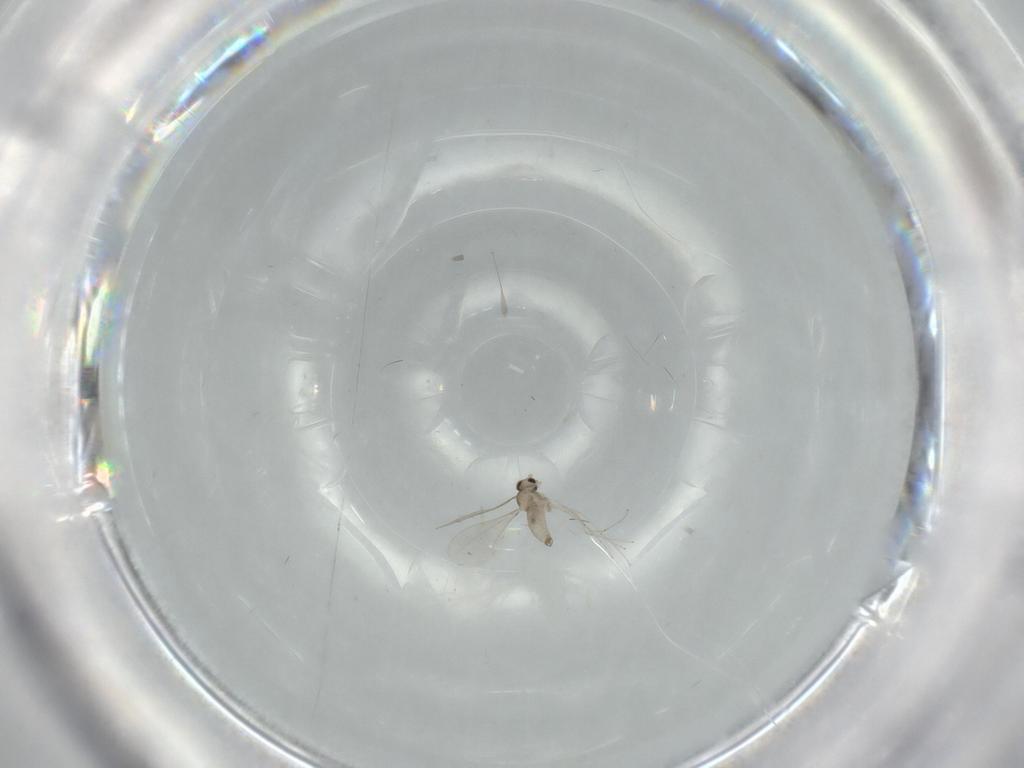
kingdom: Animalia
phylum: Arthropoda
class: Insecta
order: Diptera
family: Cecidomyiidae
